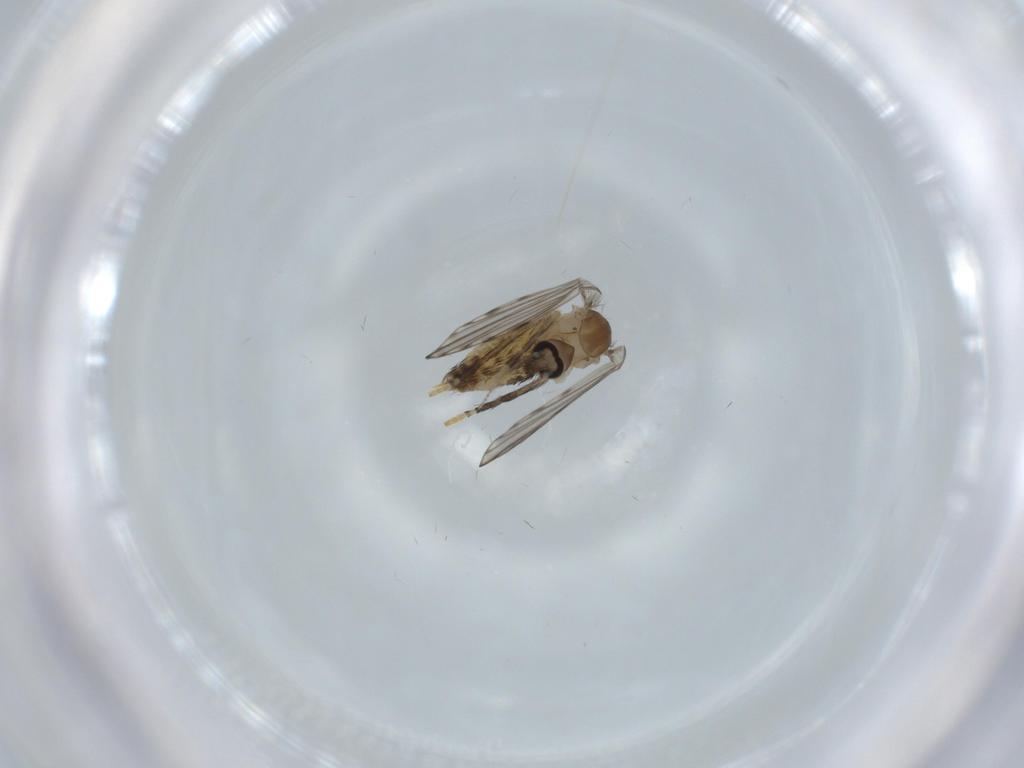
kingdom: Animalia
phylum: Arthropoda
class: Insecta
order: Diptera
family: Psychodidae
